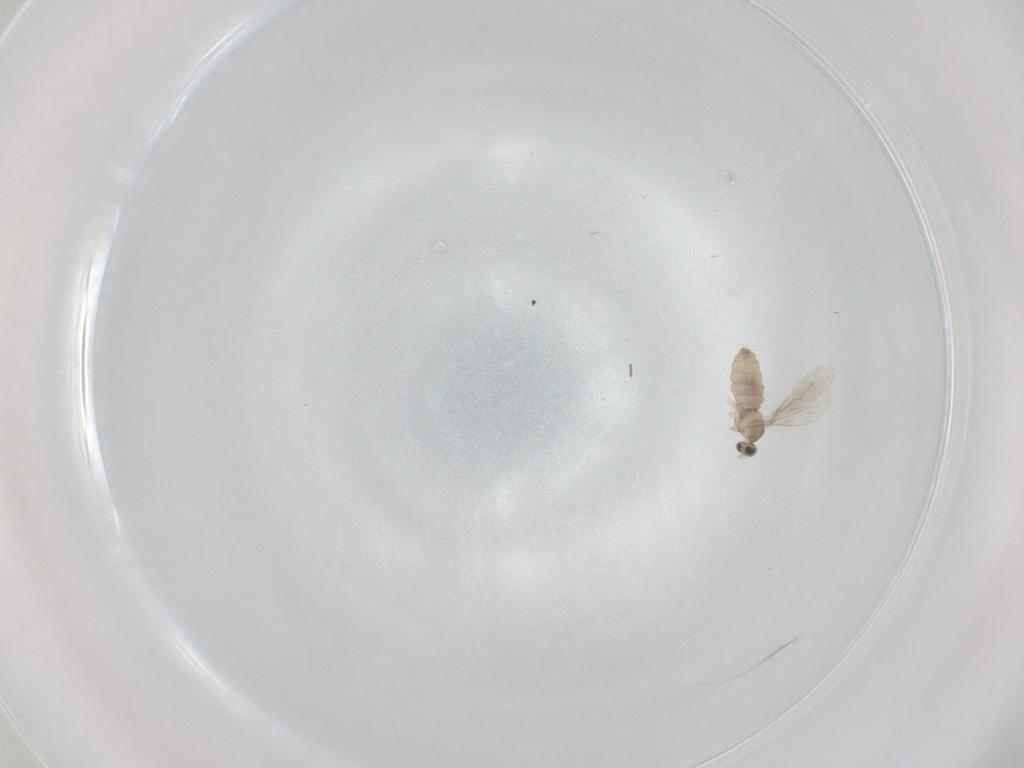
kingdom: Animalia
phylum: Arthropoda
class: Insecta
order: Diptera
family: Cecidomyiidae
